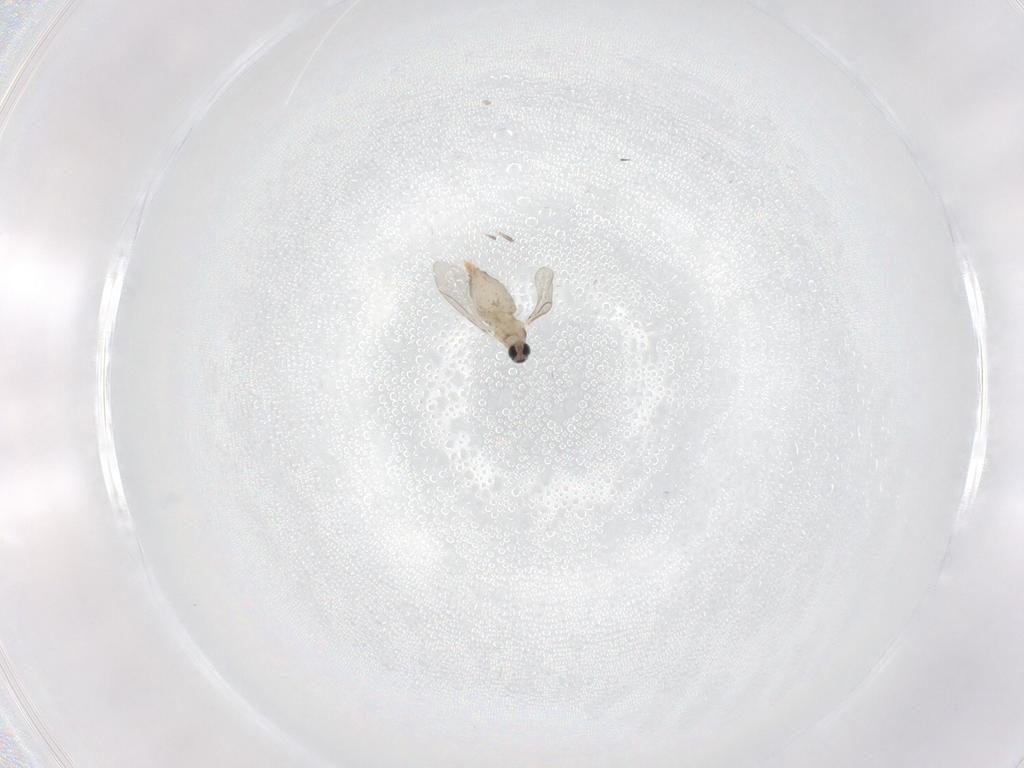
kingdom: Animalia
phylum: Arthropoda
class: Insecta
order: Diptera
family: Cecidomyiidae
